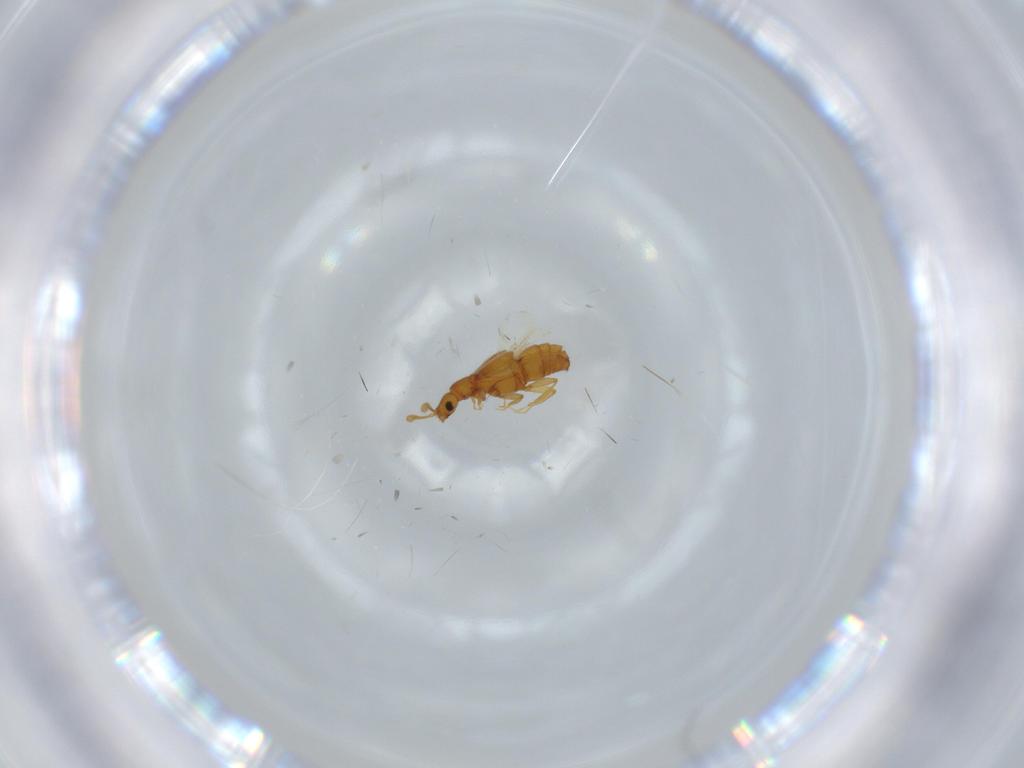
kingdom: Animalia
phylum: Arthropoda
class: Insecta
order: Coleoptera
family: Staphylinidae
